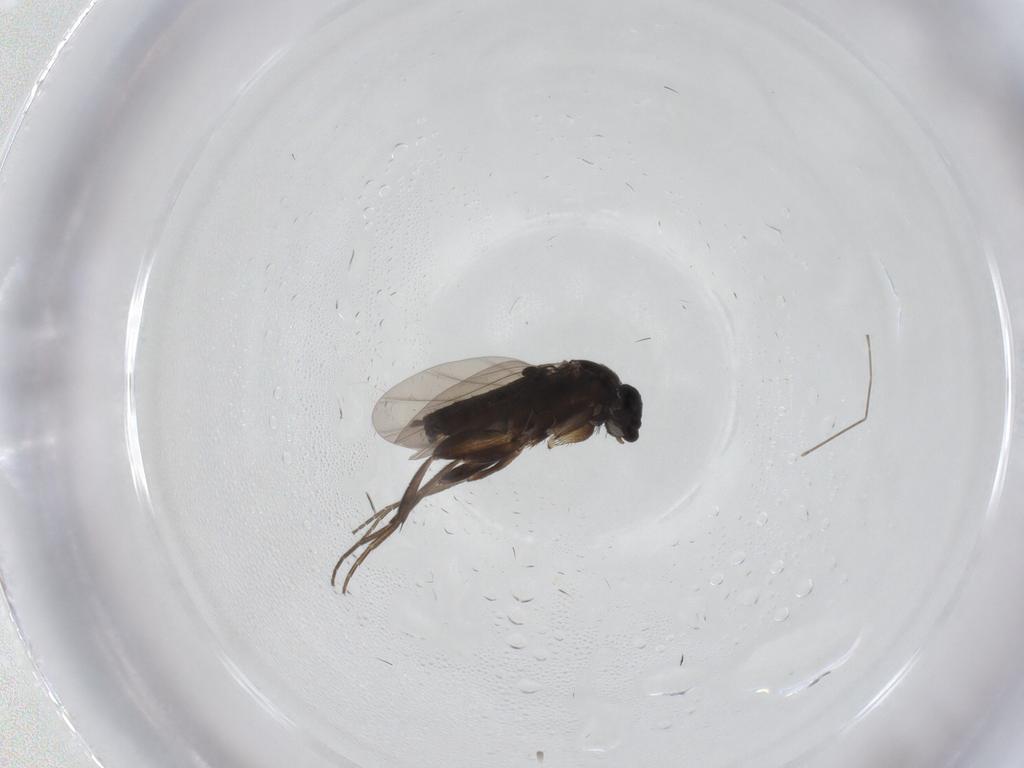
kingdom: Animalia
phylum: Arthropoda
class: Insecta
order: Diptera
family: Phoridae
